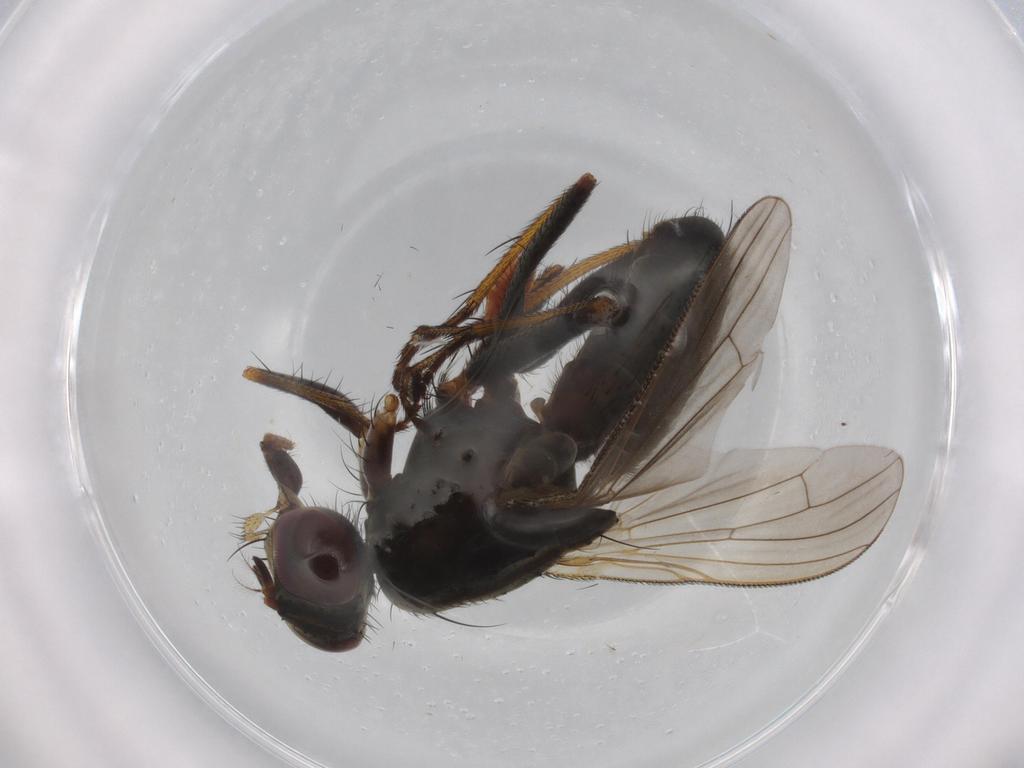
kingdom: Animalia
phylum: Arthropoda
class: Insecta
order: Diptera
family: Muscidae
